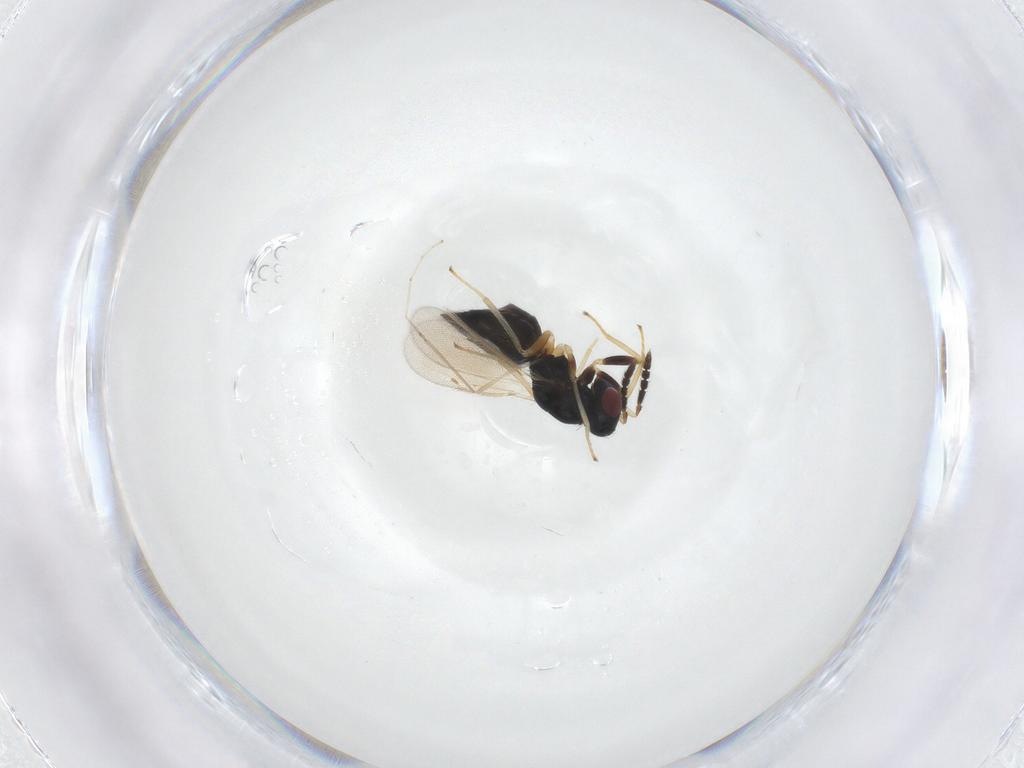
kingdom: Animalia
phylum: Arthropoda
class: Insecta
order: Hymenoptera
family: Eulophidae
